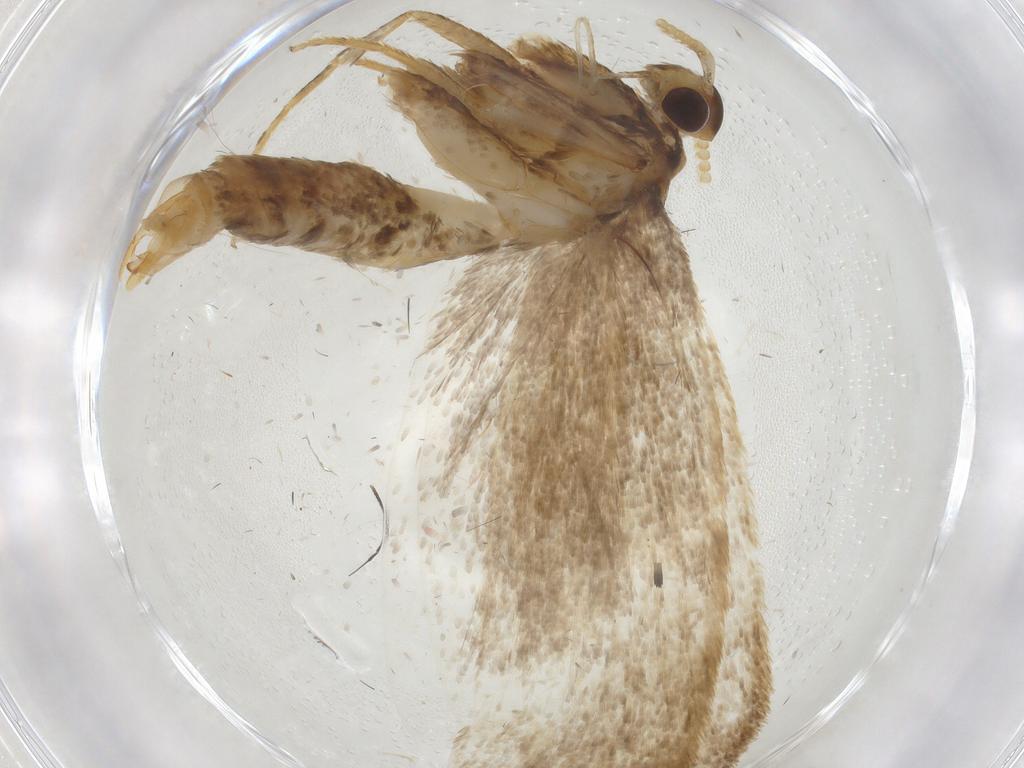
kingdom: Animalia
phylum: Arthropoda
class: Insecta
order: Lepidoptera
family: Lecithoceridae
